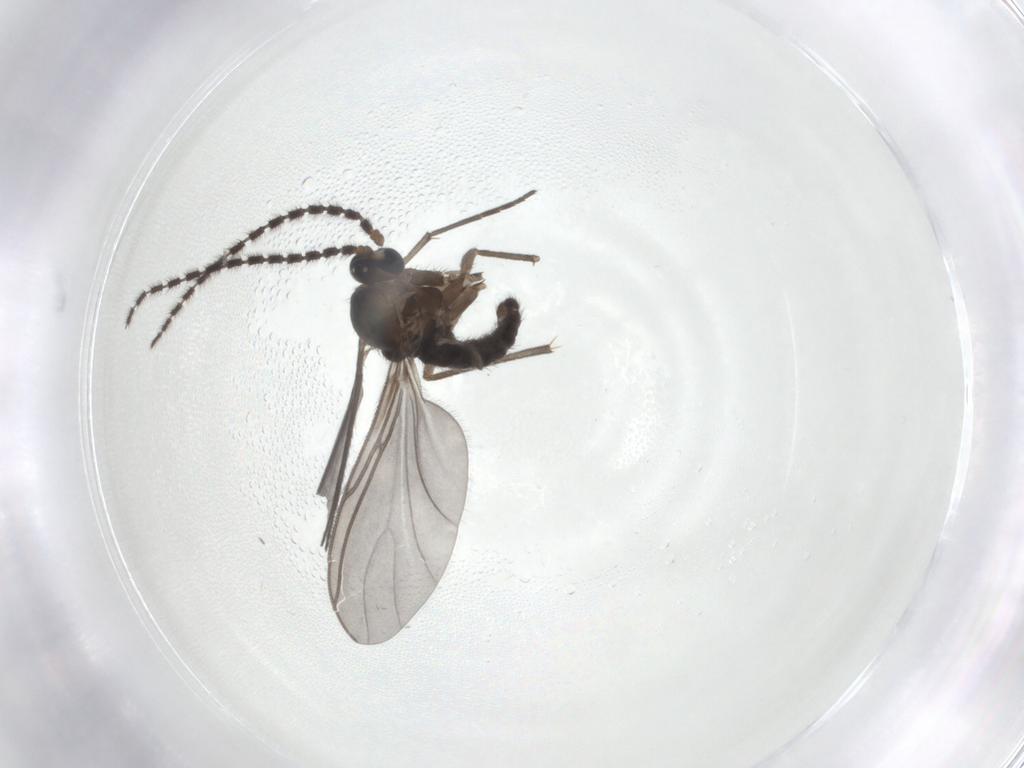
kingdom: Animalia
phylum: Arthropoda
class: Insecta
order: Diptera
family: Sciaridae
